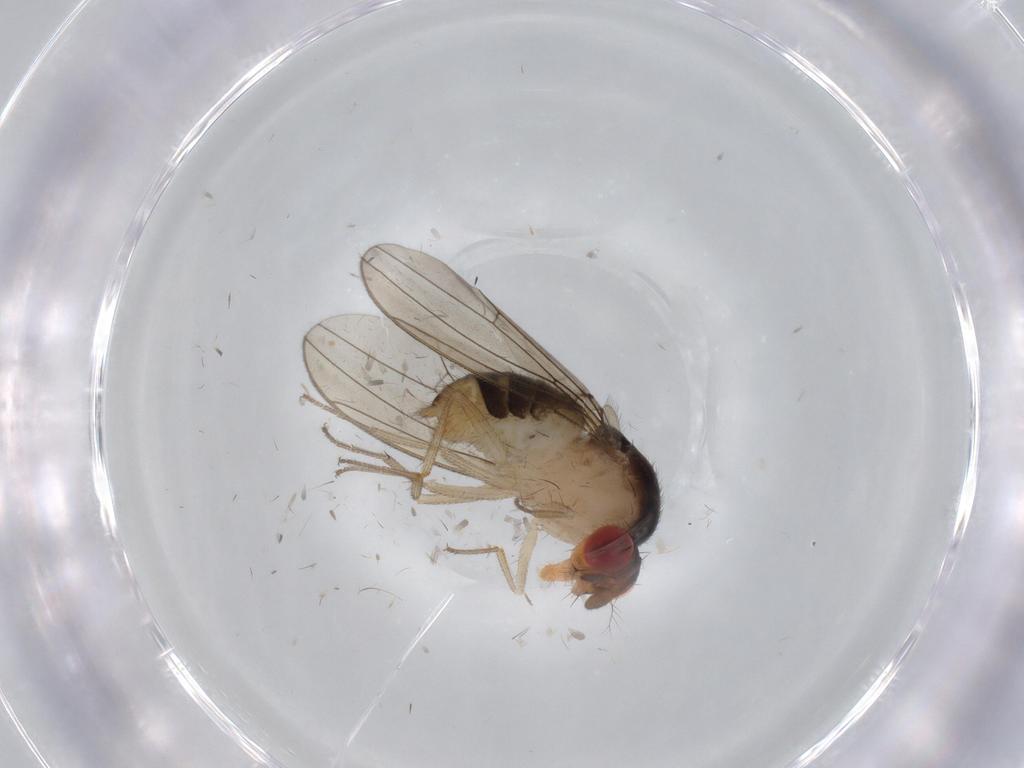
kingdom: Animalia
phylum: Arthropoda
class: Insecta
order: Diptera
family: Drosophilidae
